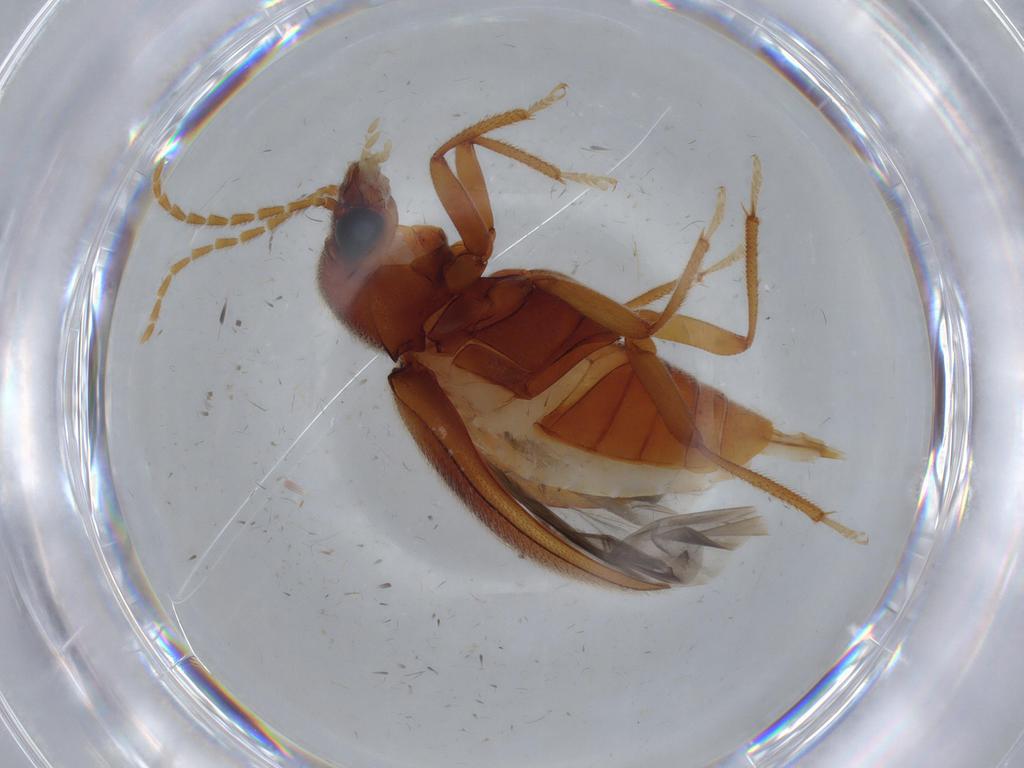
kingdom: Animalia
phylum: Arthropoda
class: Insecta
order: Coleoptera
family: Ptilodactylidae
